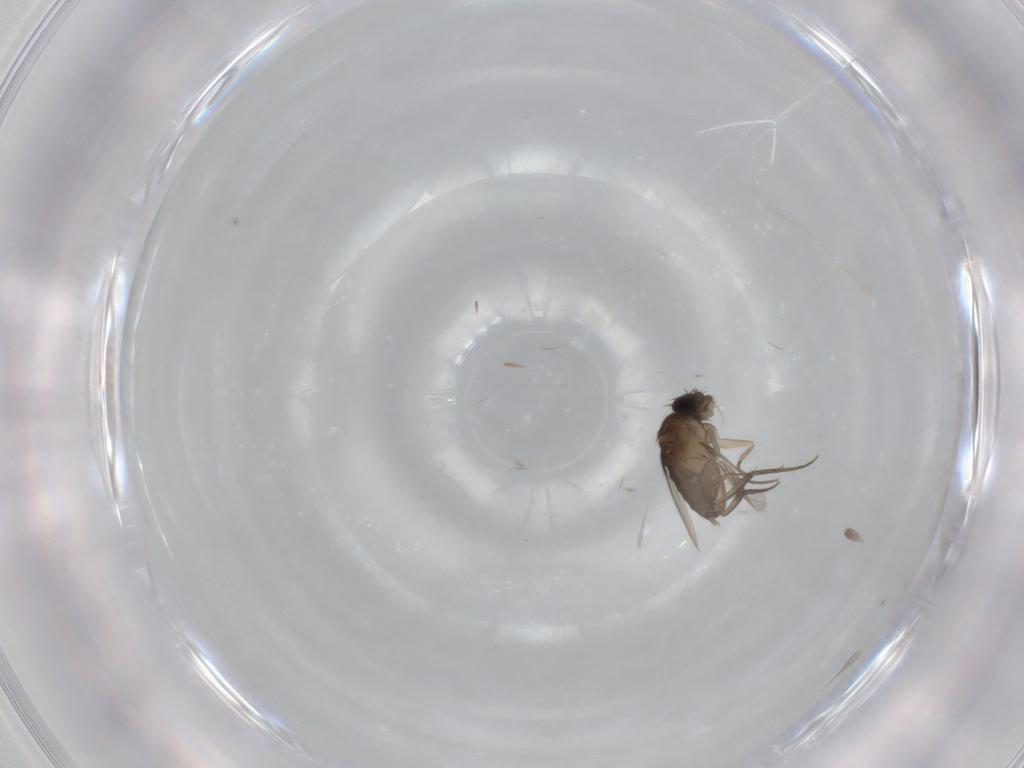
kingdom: Animalia
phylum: Arthropoda
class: Insecta
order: Diptera
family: Phoridae
